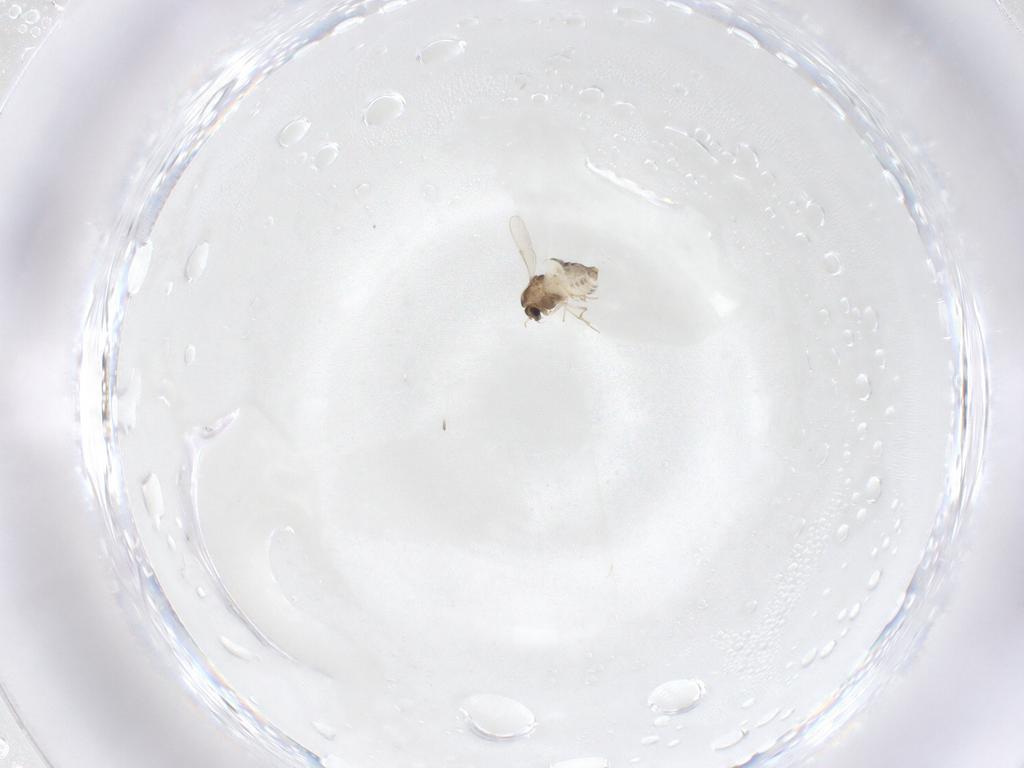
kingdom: Animalia
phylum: Arthropoda
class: Insecta
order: Diptera
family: Chironomidae
